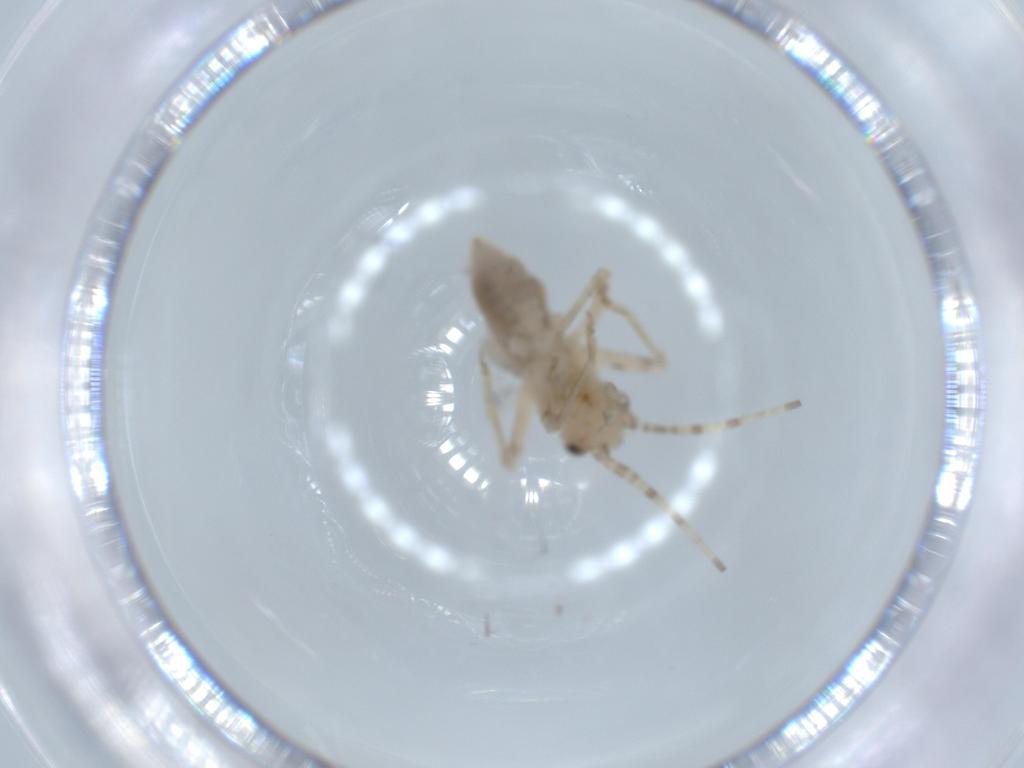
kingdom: Animalia
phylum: Arthropoda
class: Insecta
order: Orthoptera
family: Trigonidiidae
